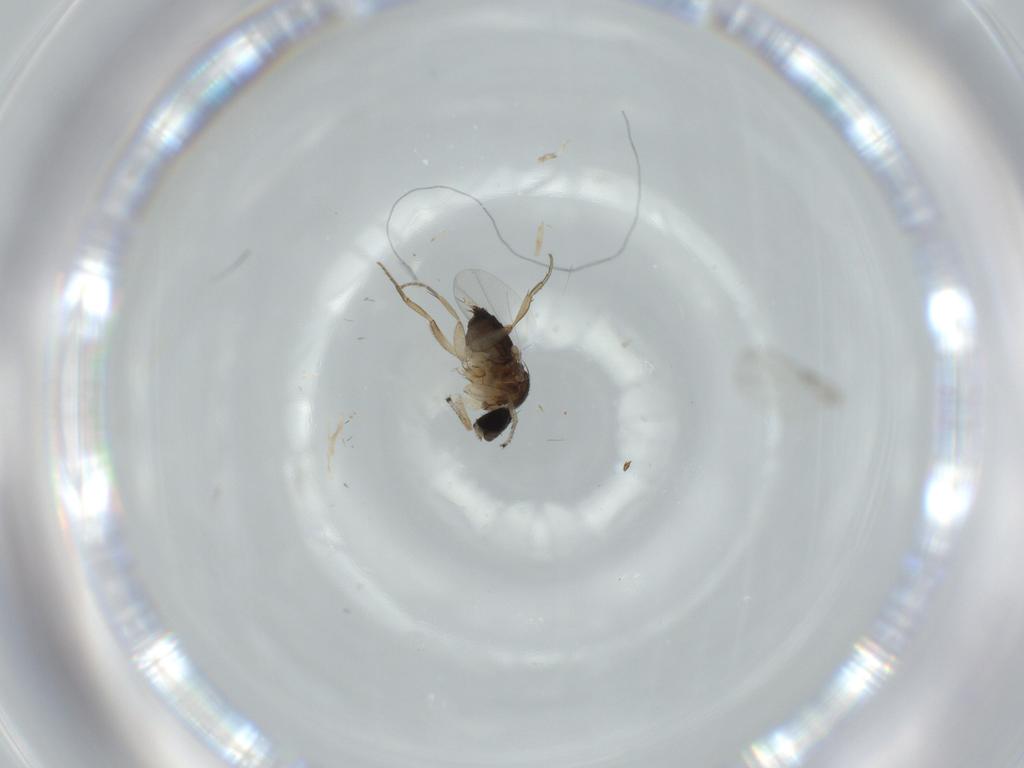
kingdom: Animalia
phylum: Arthropoda
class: Insecta
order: Diptera
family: Phoridae
